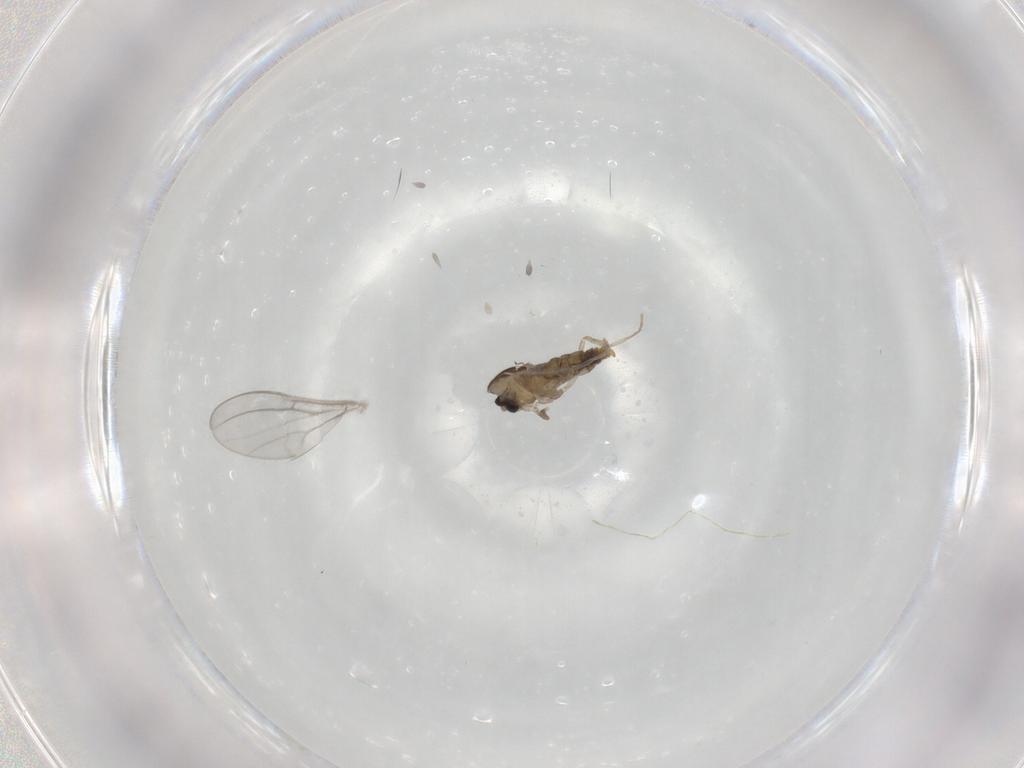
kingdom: Animalia
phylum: Arthropoda
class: Insecta
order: Diptera
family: Cecidomyiidae
